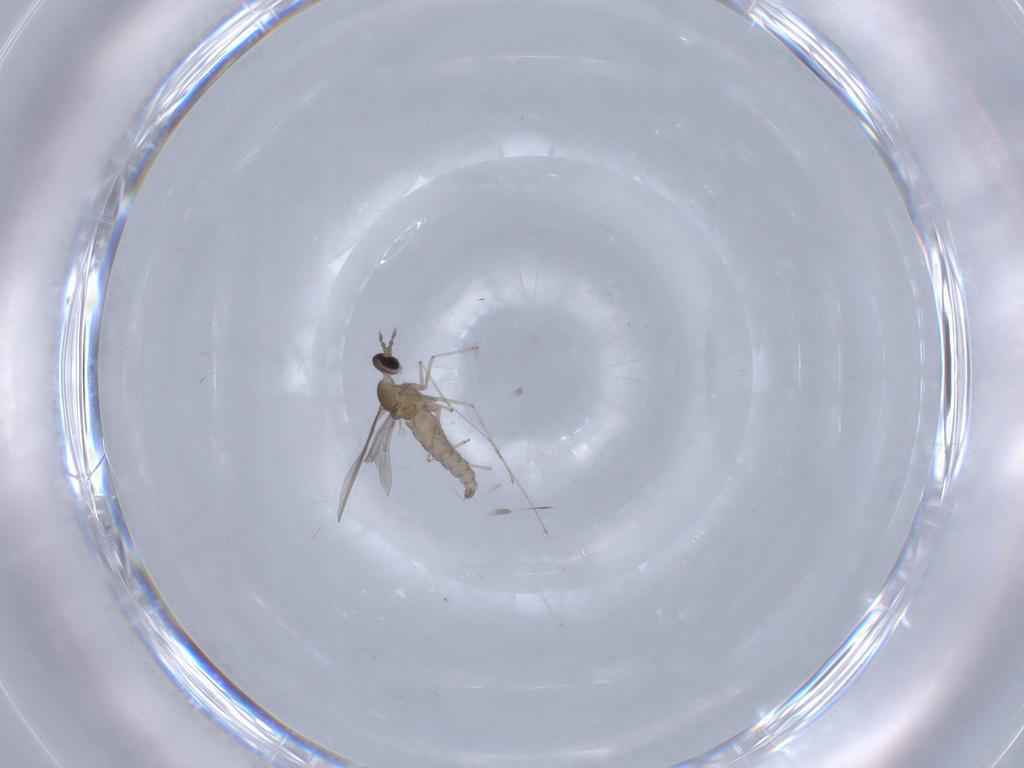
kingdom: Animalia
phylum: Arthropoda
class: Insecta
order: Diptera
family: Cecidomyiidae
